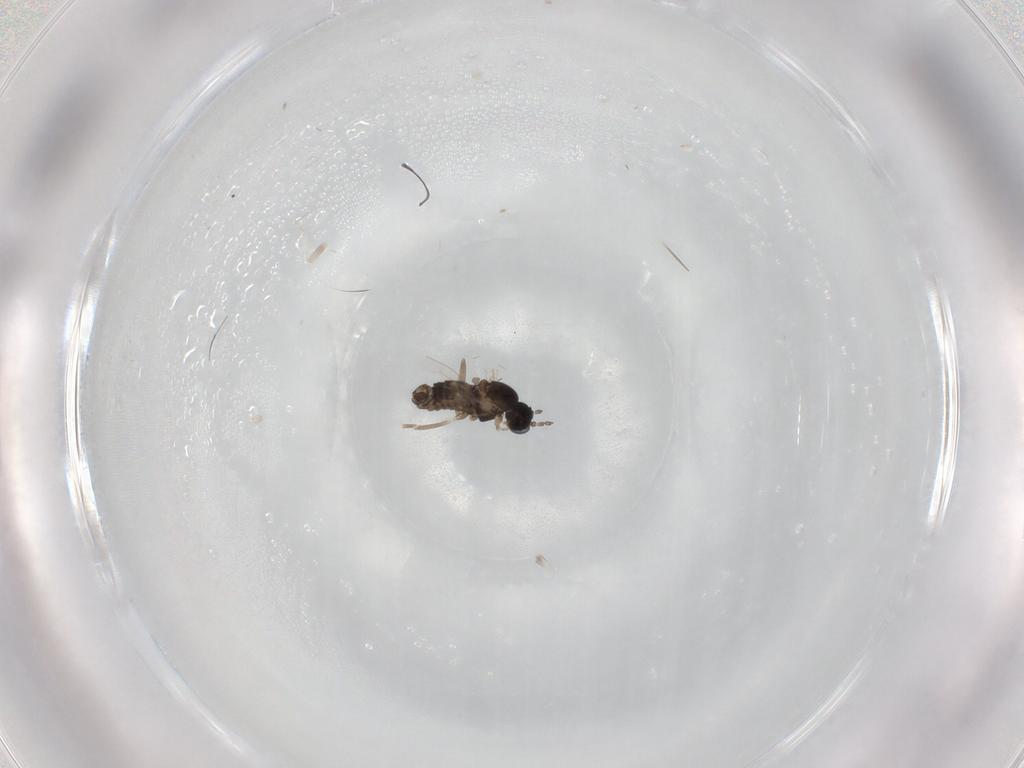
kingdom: Animalia
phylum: Arthropoda
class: Insecta
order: Diptera
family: Cecidomyiidae
